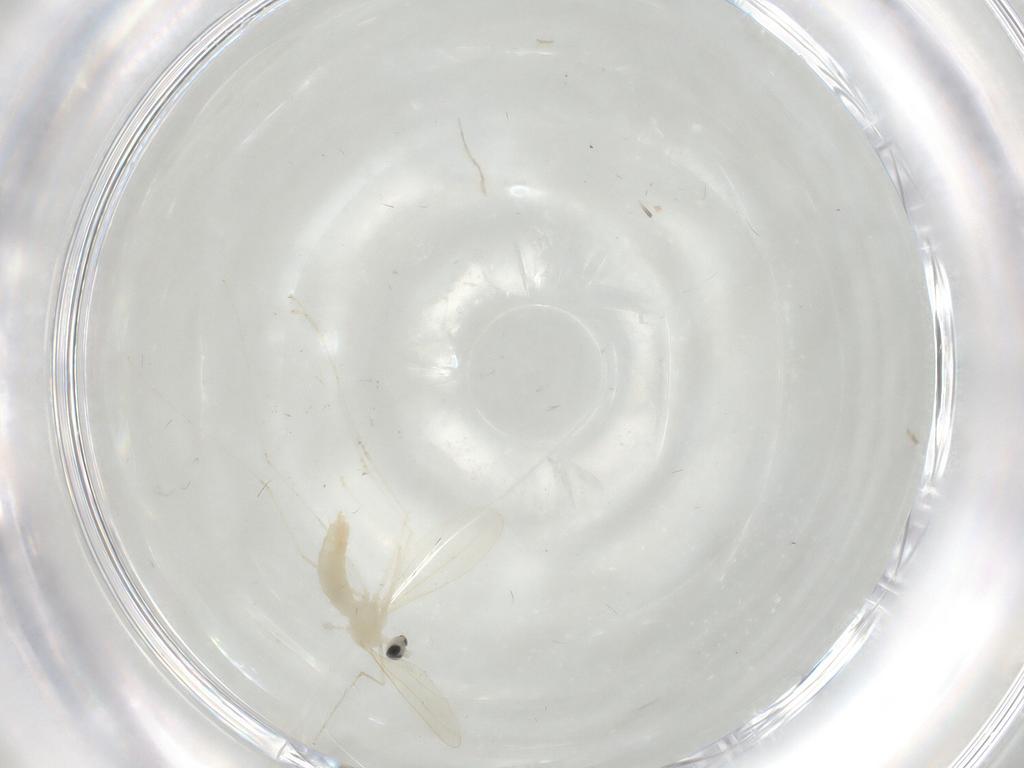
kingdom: Animalia
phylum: Arthropoda
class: Insecta
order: Diptera
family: Cecidomyiidae
